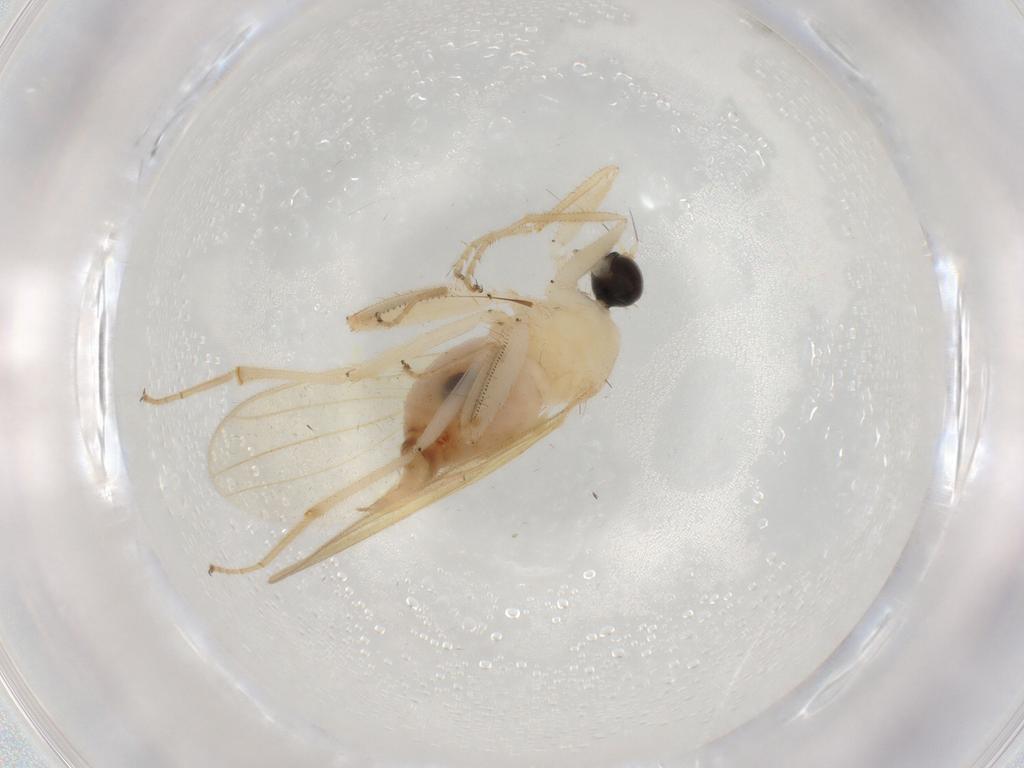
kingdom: Animalia
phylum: Arthropoda
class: Insecta
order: Diptera
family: Hybotidae
